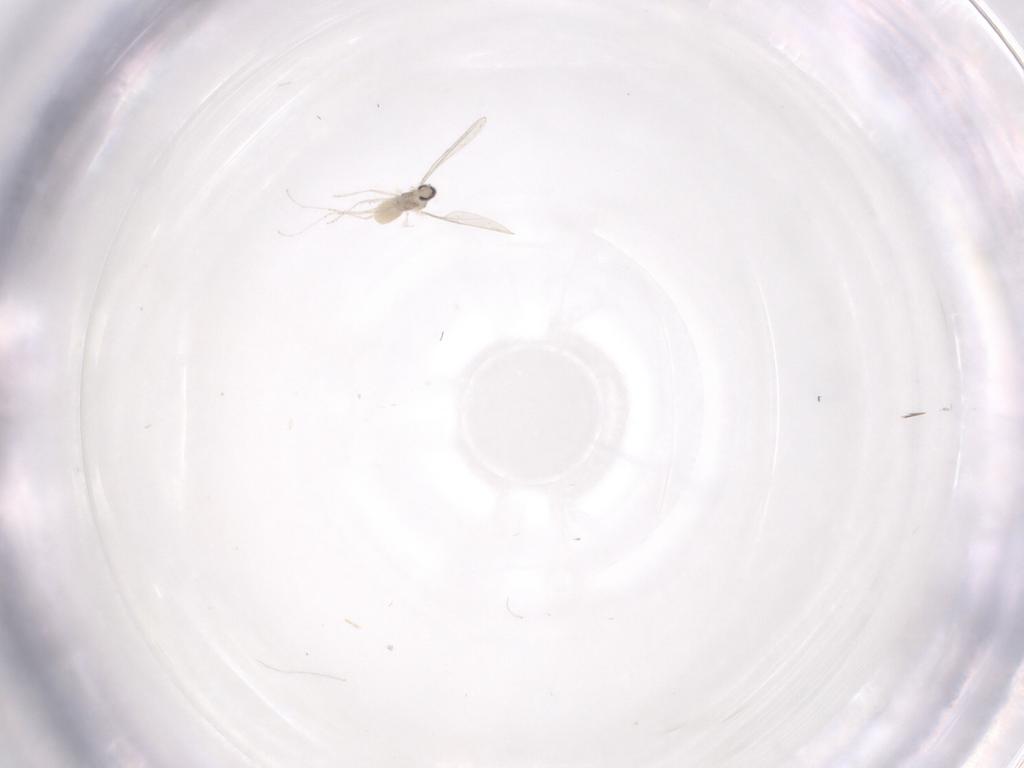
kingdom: Animalia
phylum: Arthropoda
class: Insecta
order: Diptera
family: Cecidomyiidae
